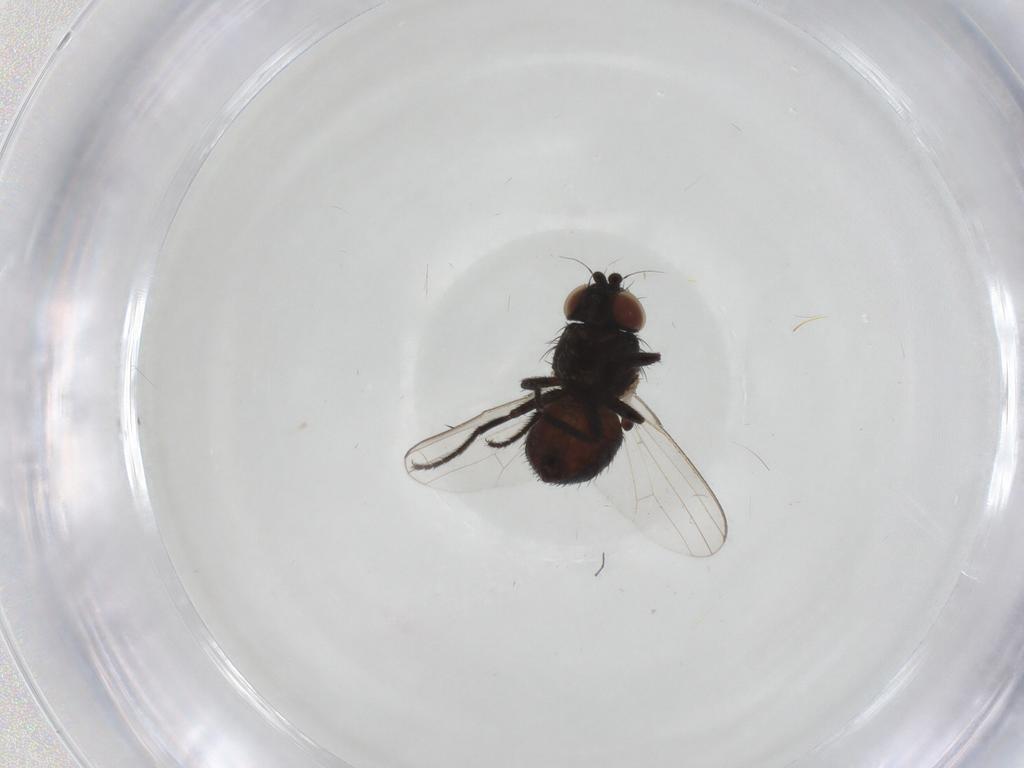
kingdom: Animalia
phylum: Arthropoda
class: Insecta
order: Diptera
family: Milichiidae
